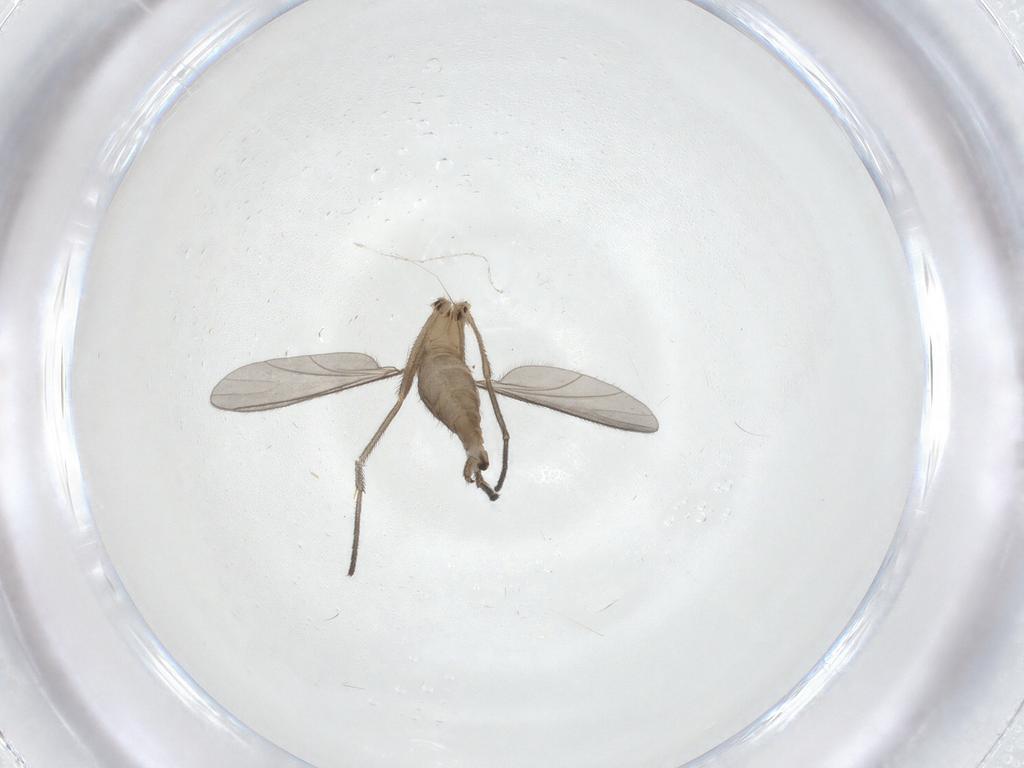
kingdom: Animalia
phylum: Arthropoda
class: Insecta
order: Diptera
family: Sciaridae
